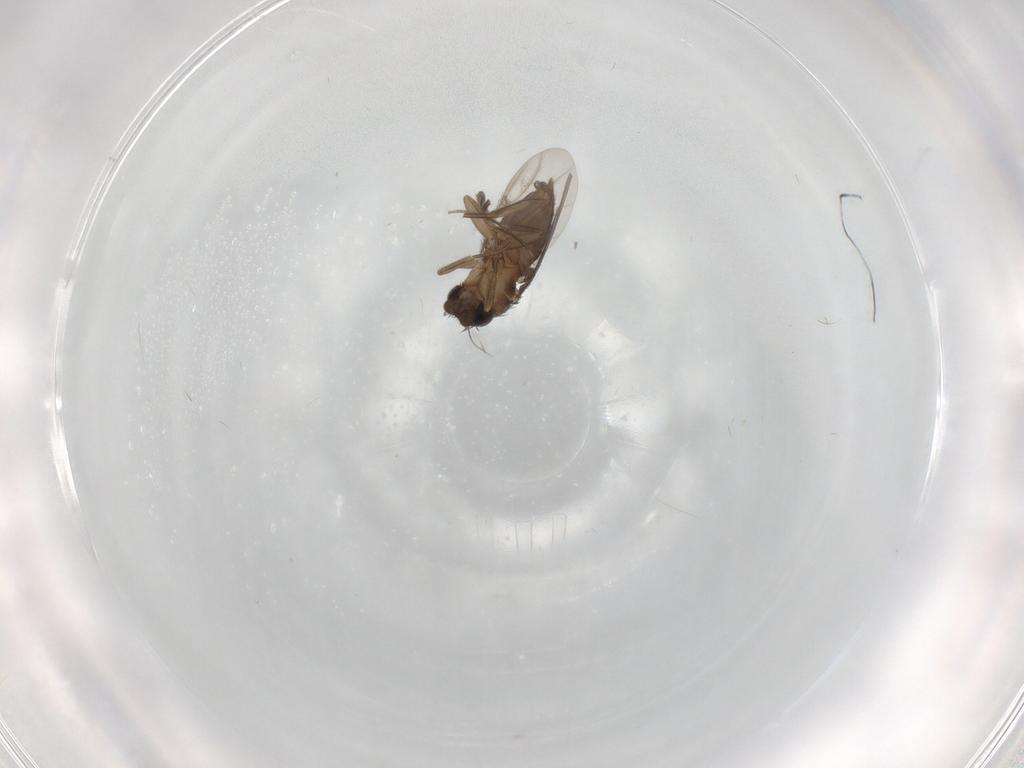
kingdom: Animalia
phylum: Arthropoda
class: Insecta
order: Diptera
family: Phoridae
